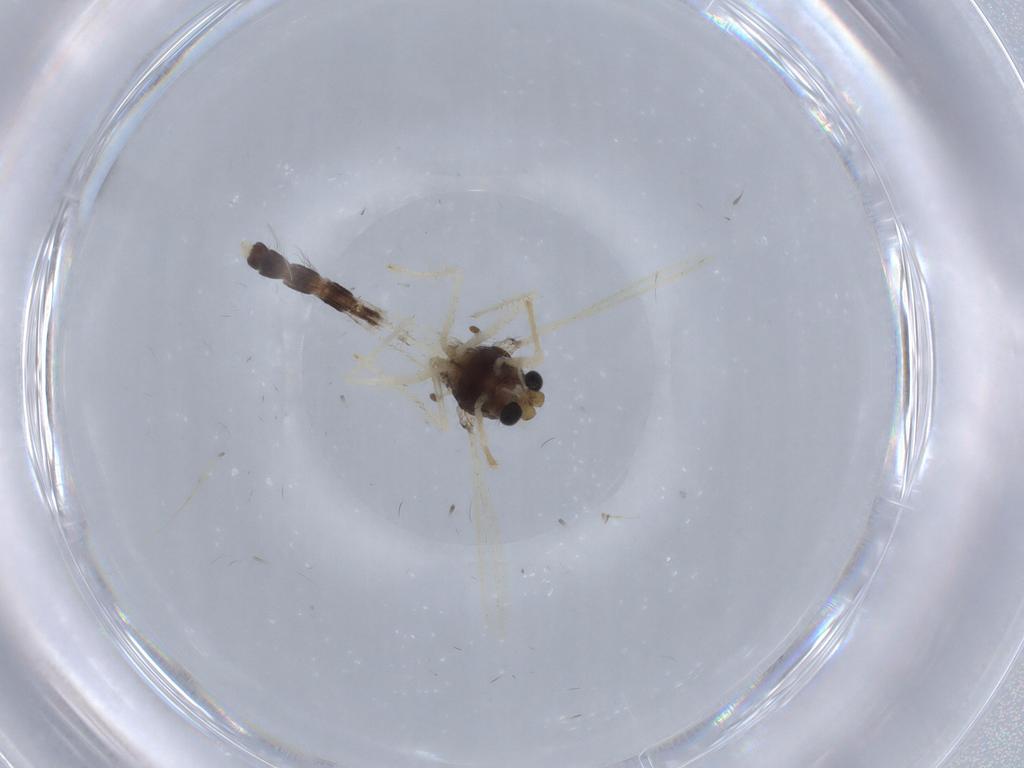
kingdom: Animalia
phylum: Arthropoda
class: Insecta
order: Diptera
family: Chironomidae
